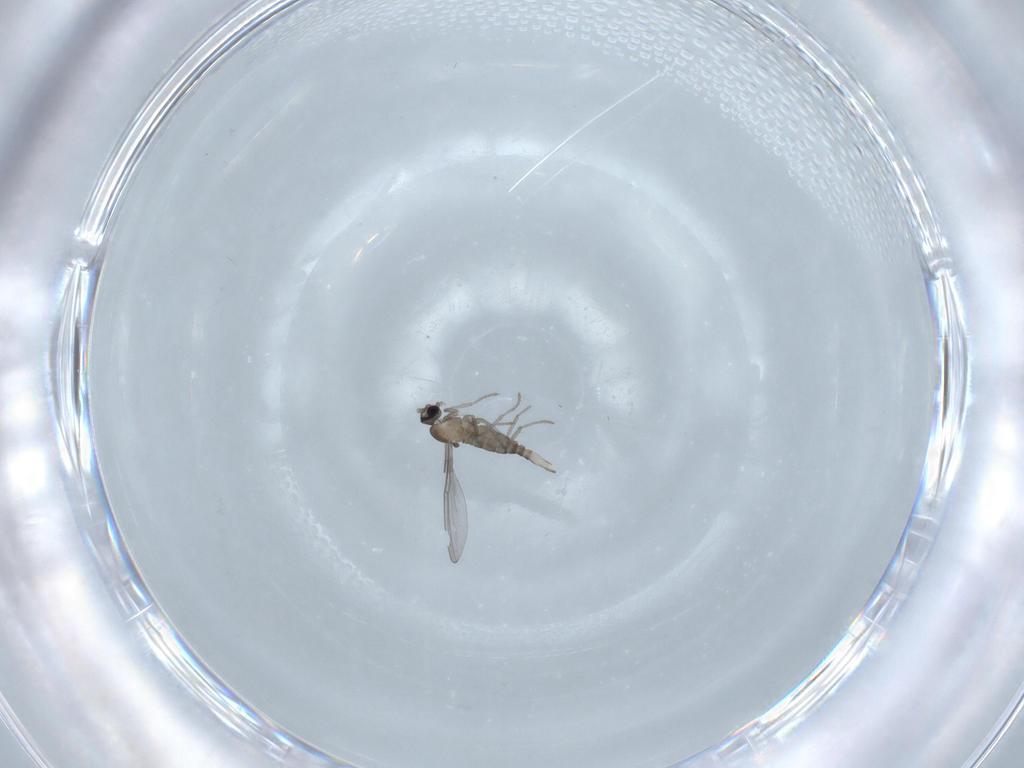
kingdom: Animalia
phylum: Arthropoda
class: Insecta
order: Diptera
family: Cecidomyiidae
